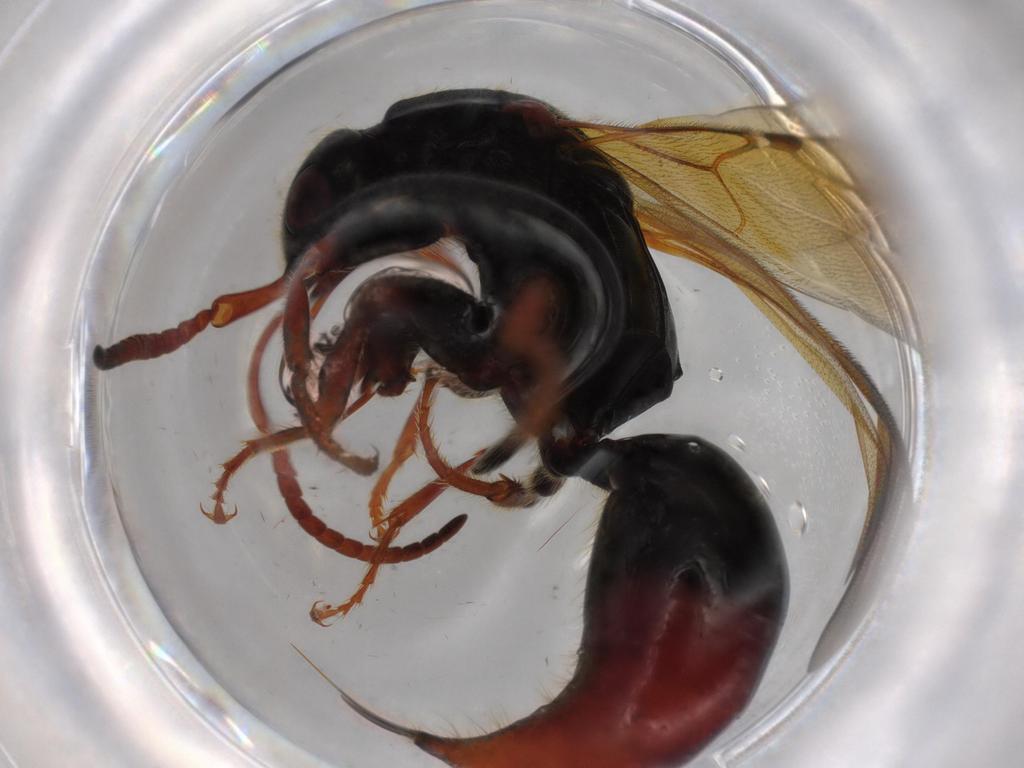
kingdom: Animalia
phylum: Arthropoda
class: Insecta
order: Hymenoptera
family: Bethylidae
